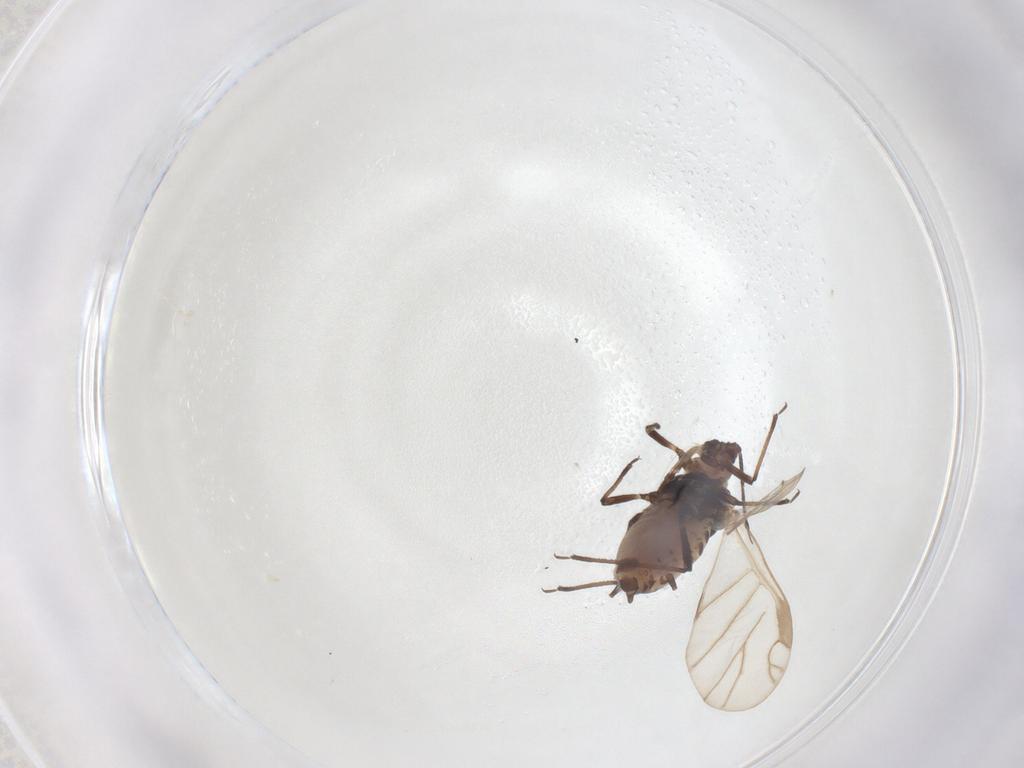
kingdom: Animalia
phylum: Arthropoda
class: Insecta
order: Hemiptera
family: Aphididae
